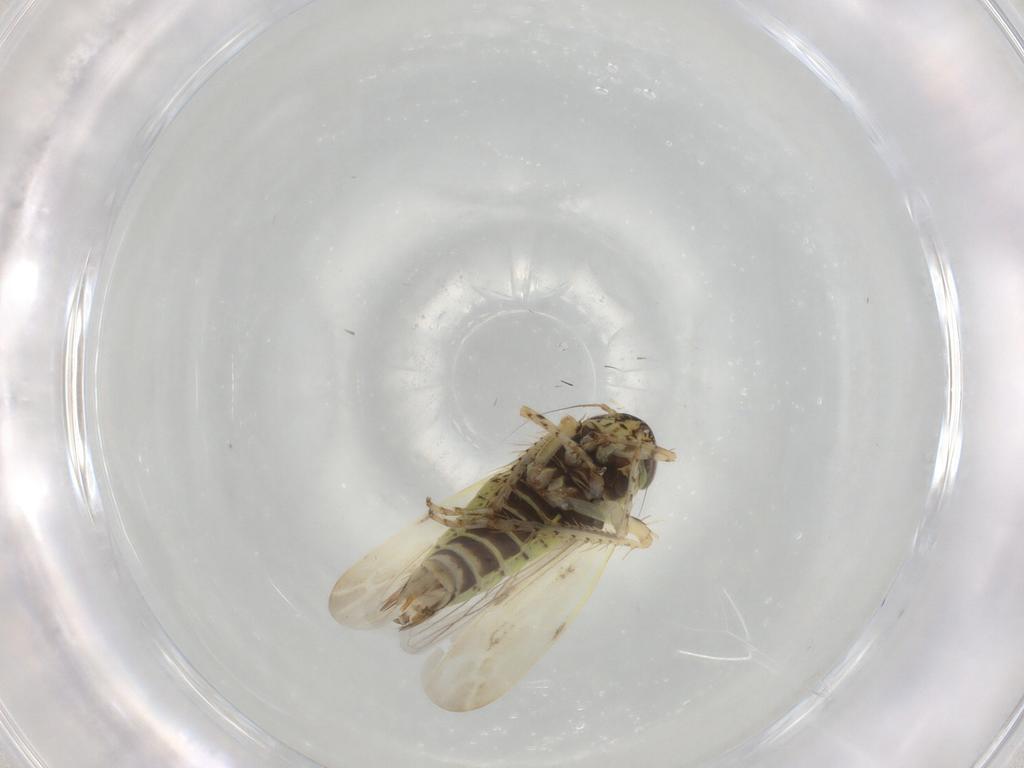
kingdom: Animalia
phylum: Arthropoda
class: Insecta
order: Hemiptera
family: Cicadellidae
